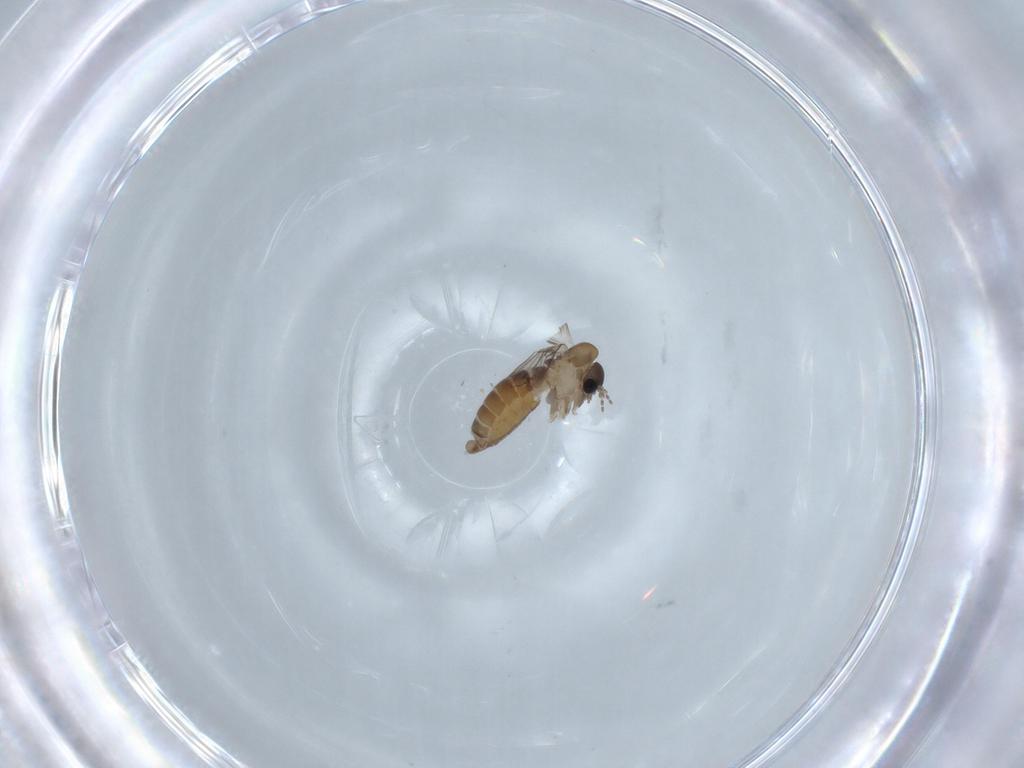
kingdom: Animalia
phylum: Arthropoda
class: Insecta
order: Diptera
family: Psychodidae
